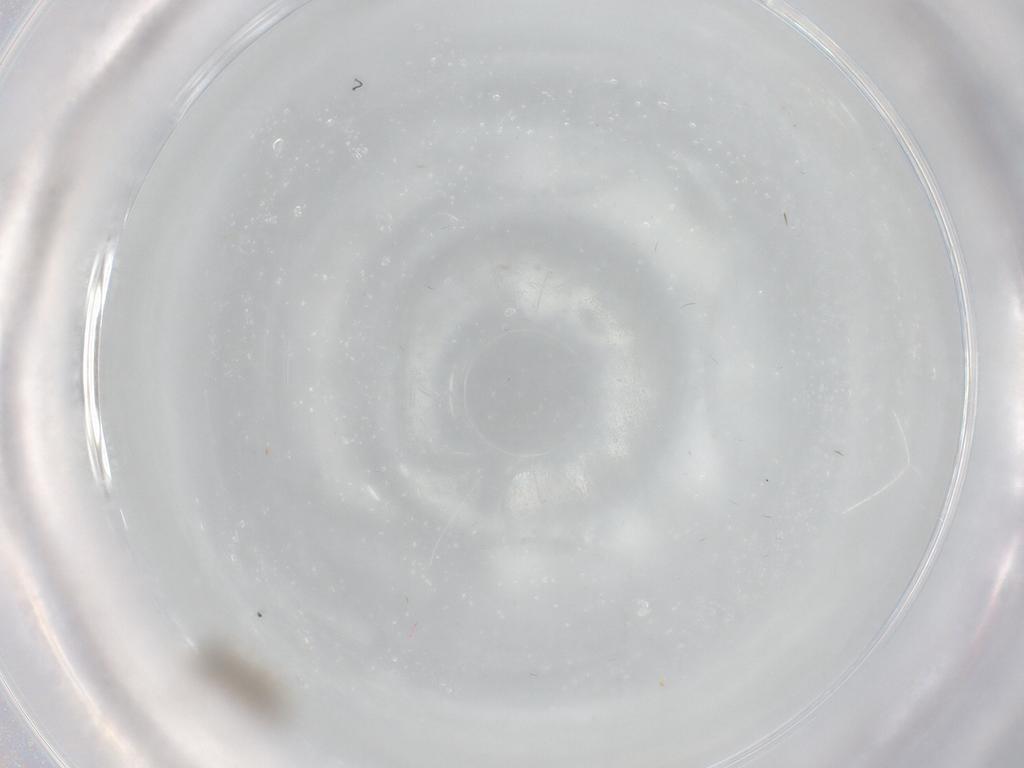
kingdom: Animalia
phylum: Arthropoda
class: Insecta
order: Diptera
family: Psychodidae
